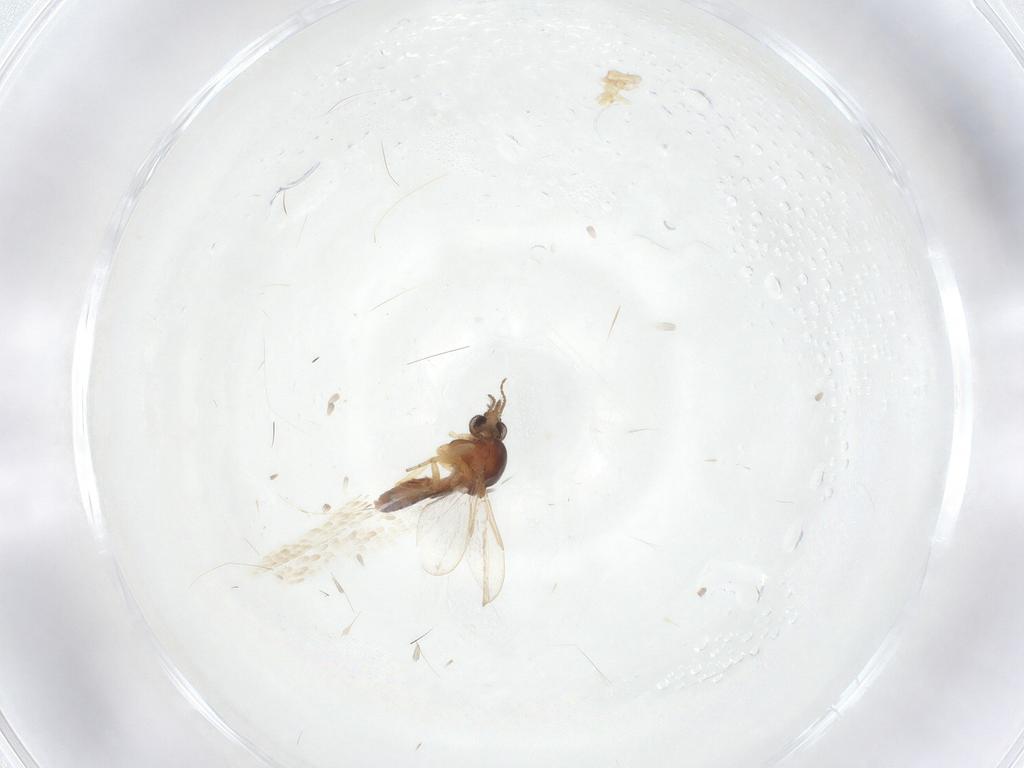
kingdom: Animalia
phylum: Arthropoda
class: Insecta
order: Diptera
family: Ceratopogonidae
